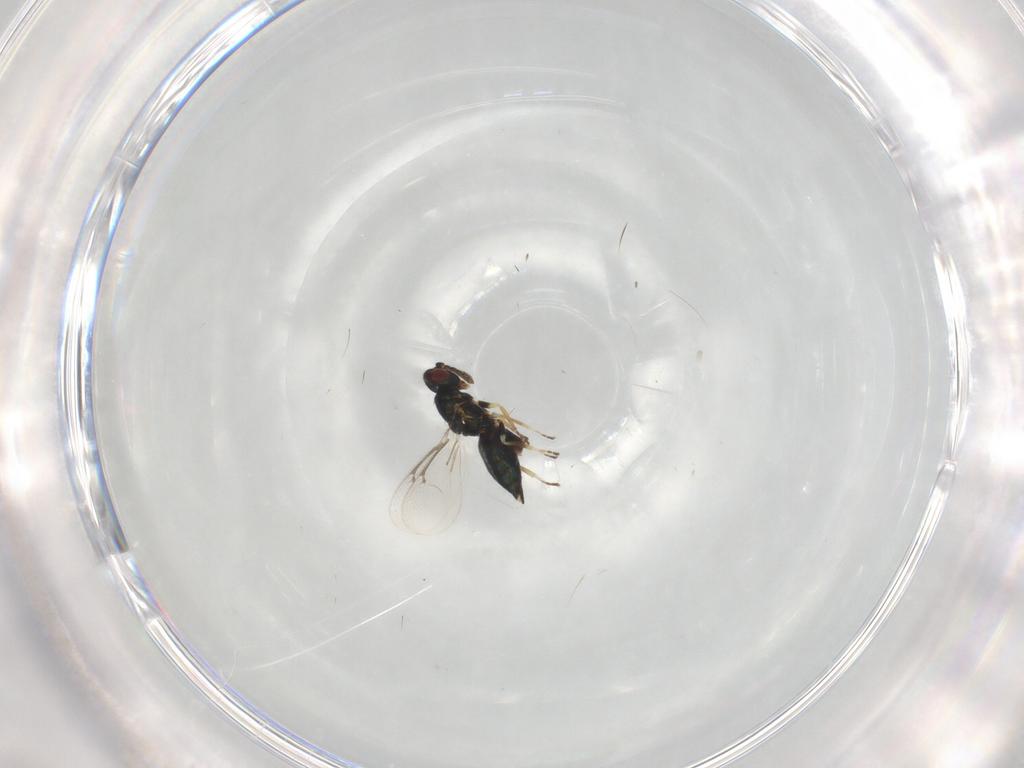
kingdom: Animalia
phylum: Arthropoda
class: Insecta
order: Hymenoptera
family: Eulophidae
